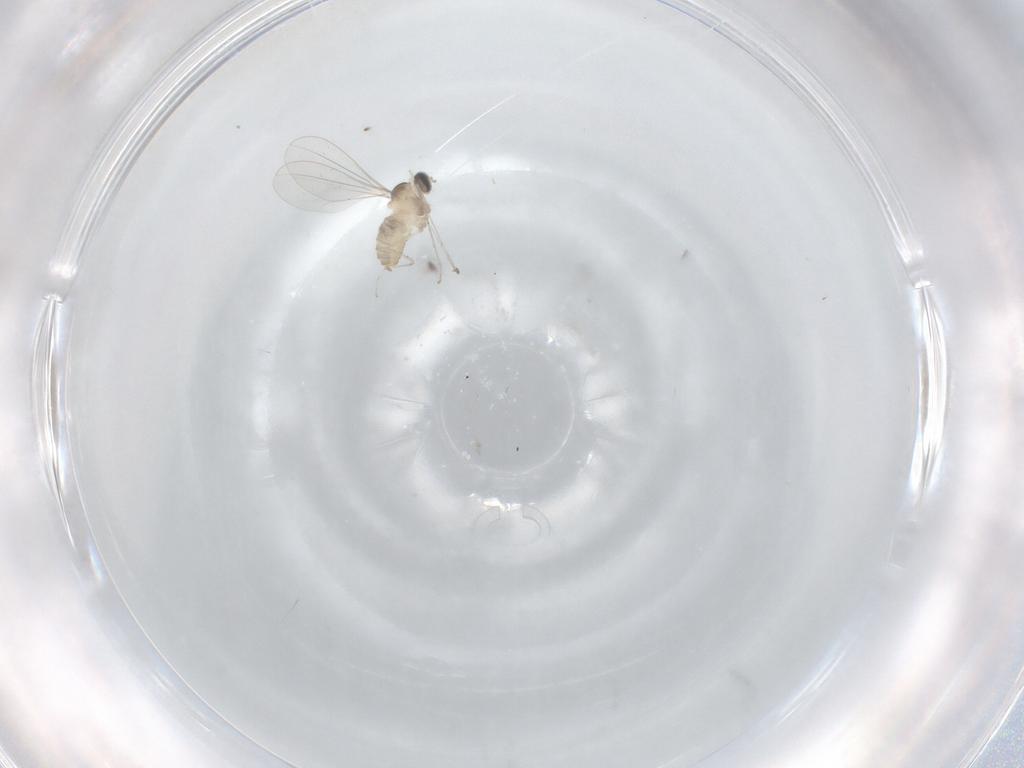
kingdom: Animalia
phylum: Arthropoda
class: Insecta
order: Diptera
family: Cecidomyiidae
